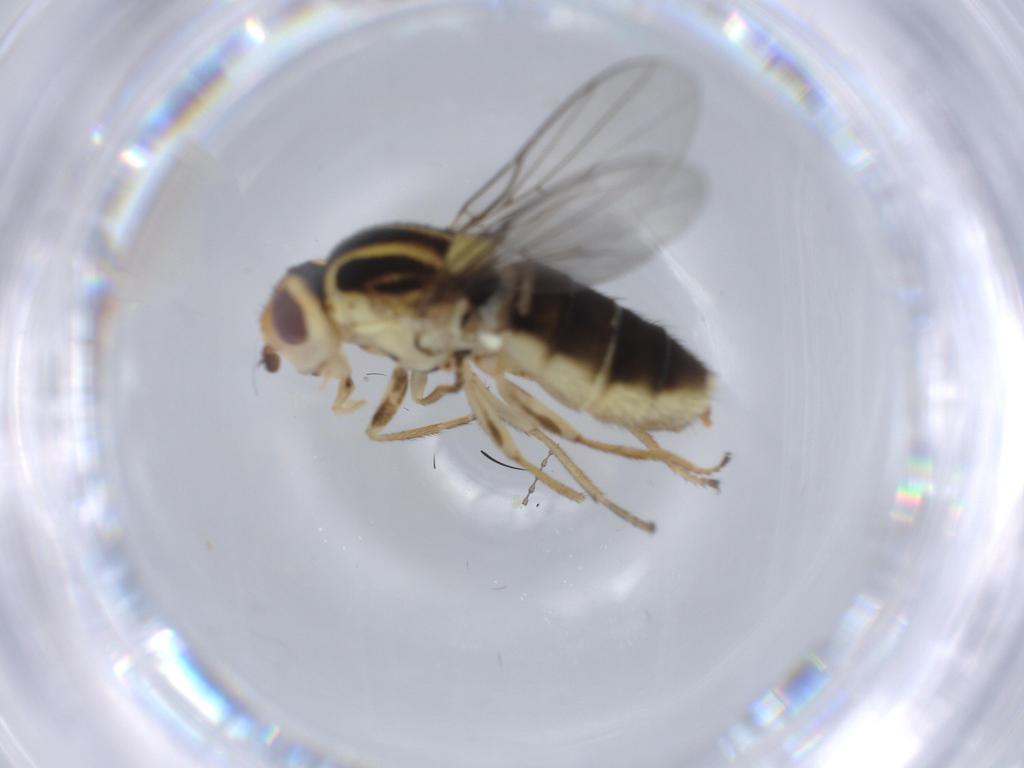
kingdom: Animalia
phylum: Arthropoda
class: Insecta
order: Diptera
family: Chloropidae
